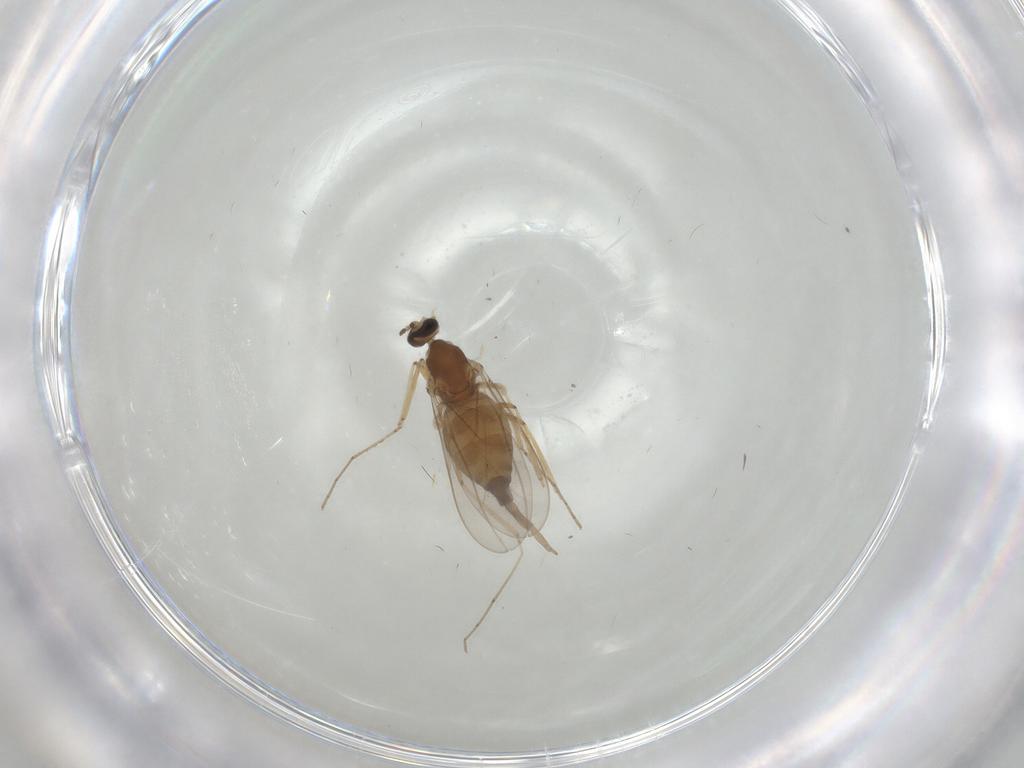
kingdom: Animalia
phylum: Arthropoda
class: Insecta
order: Diptera
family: Cecidomyiidae
